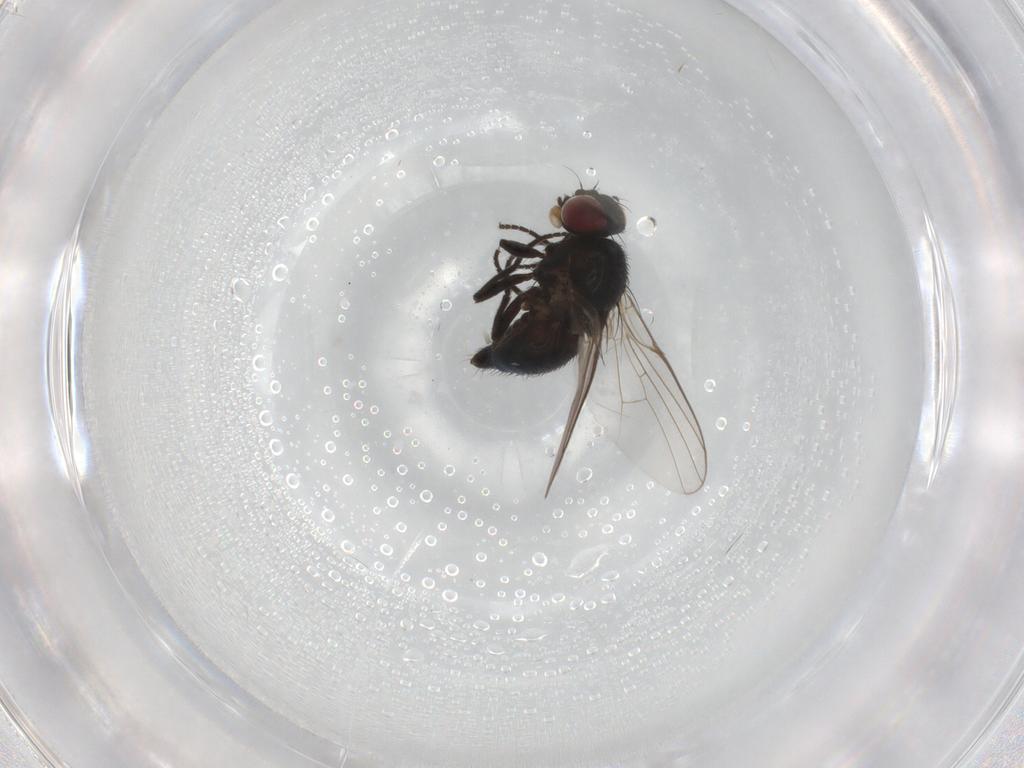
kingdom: Animalia
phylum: Arthropoda
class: Insecta
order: Diptera
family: Agromyzidae
